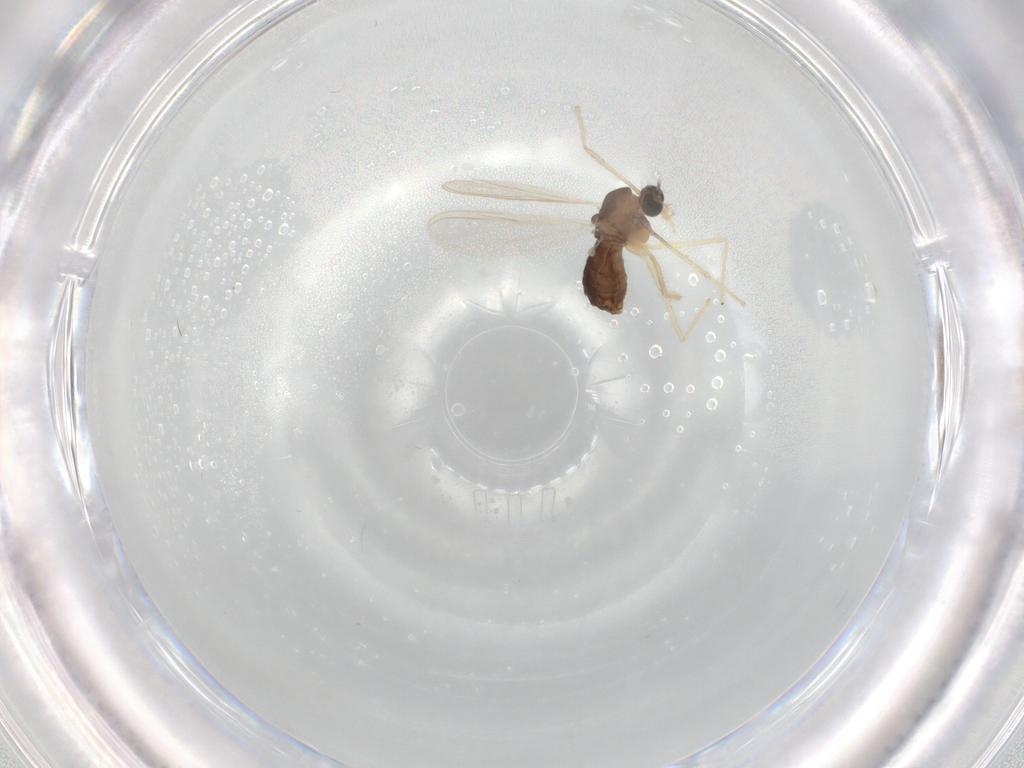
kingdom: Animalia
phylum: Arthropoda
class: Insecta
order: Diptera
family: Chironomidae
